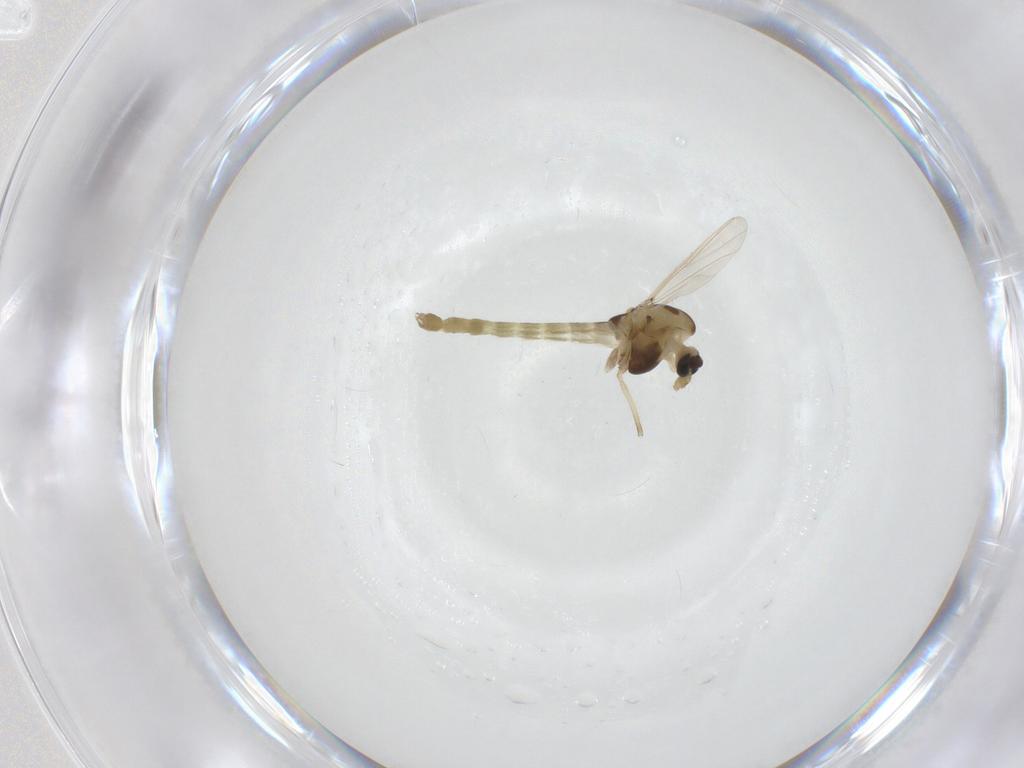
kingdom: Animalia
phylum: Arthropoda
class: Insecta
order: Diptera
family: Chironomidae
